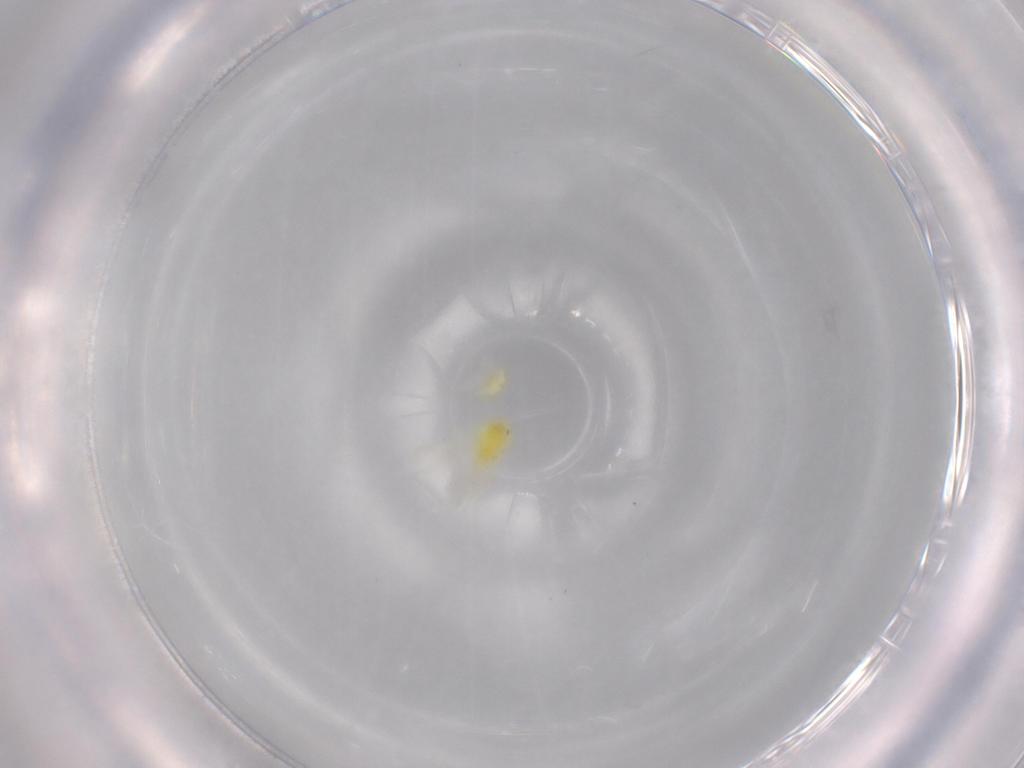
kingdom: Animalia
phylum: Arthropoda
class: Insecta
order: Hemiptera
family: Aleyrodidae
